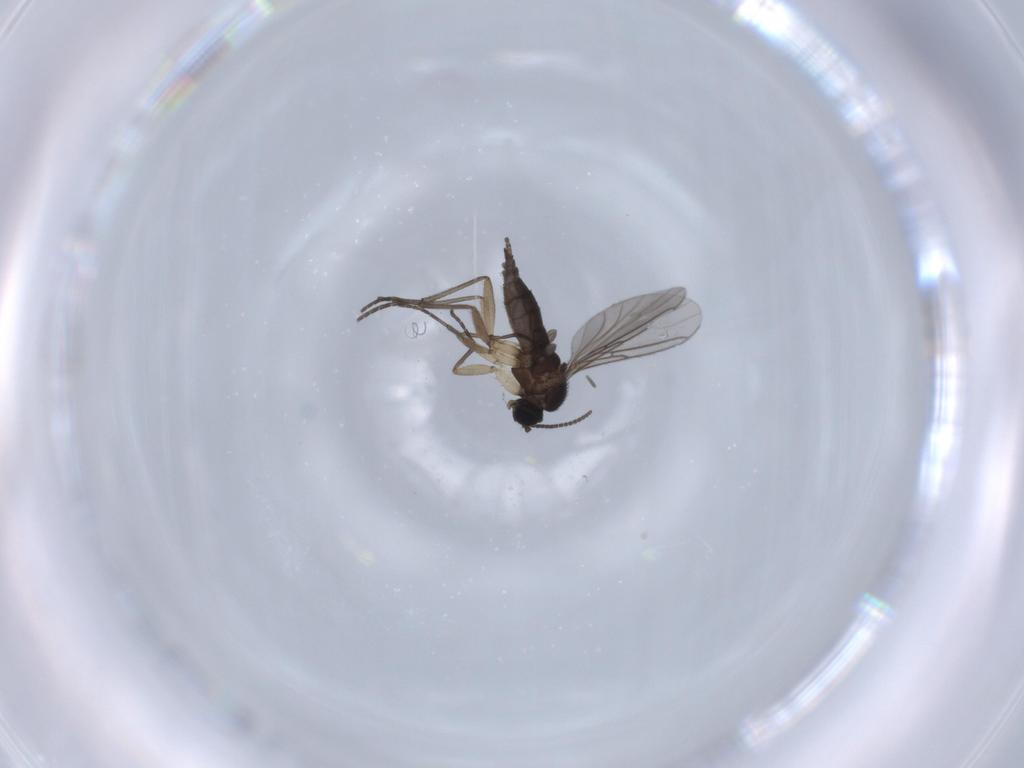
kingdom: Animalia
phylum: Arthropoda
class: Insecta
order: Diptera
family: Sciaridae
